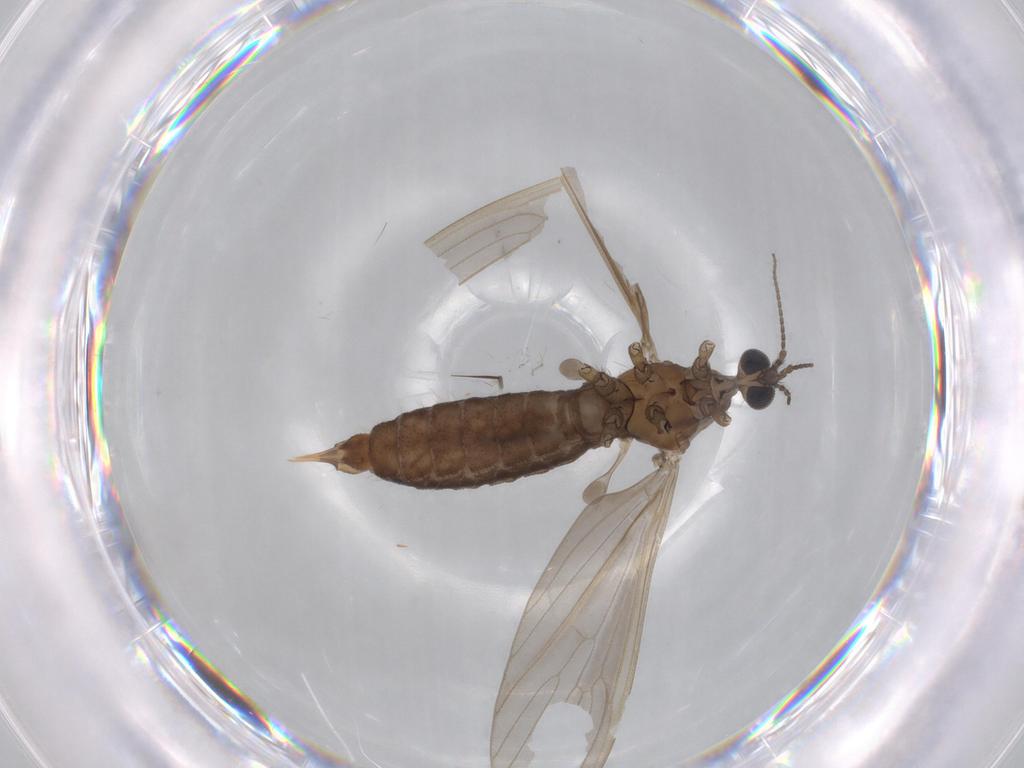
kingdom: Animalia
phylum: Arthropoda
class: Insecta
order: Diptera
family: Limoniidae
